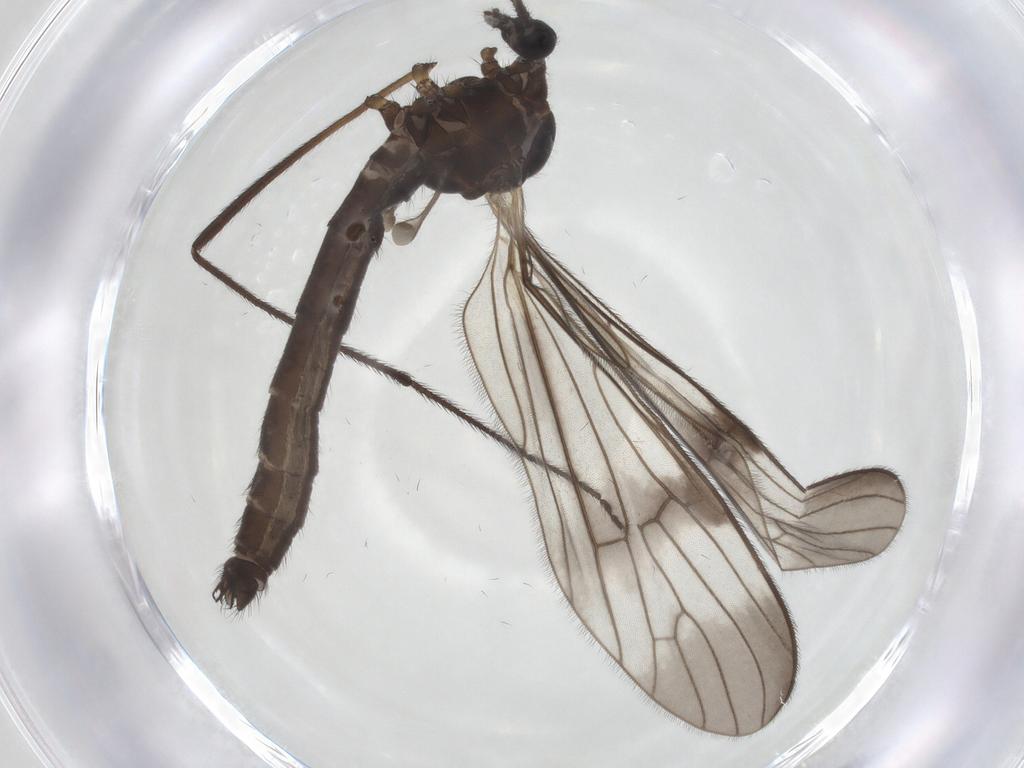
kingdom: Animalia
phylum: Arthropoda
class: Insecta
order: Diptera
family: Limoniidae
